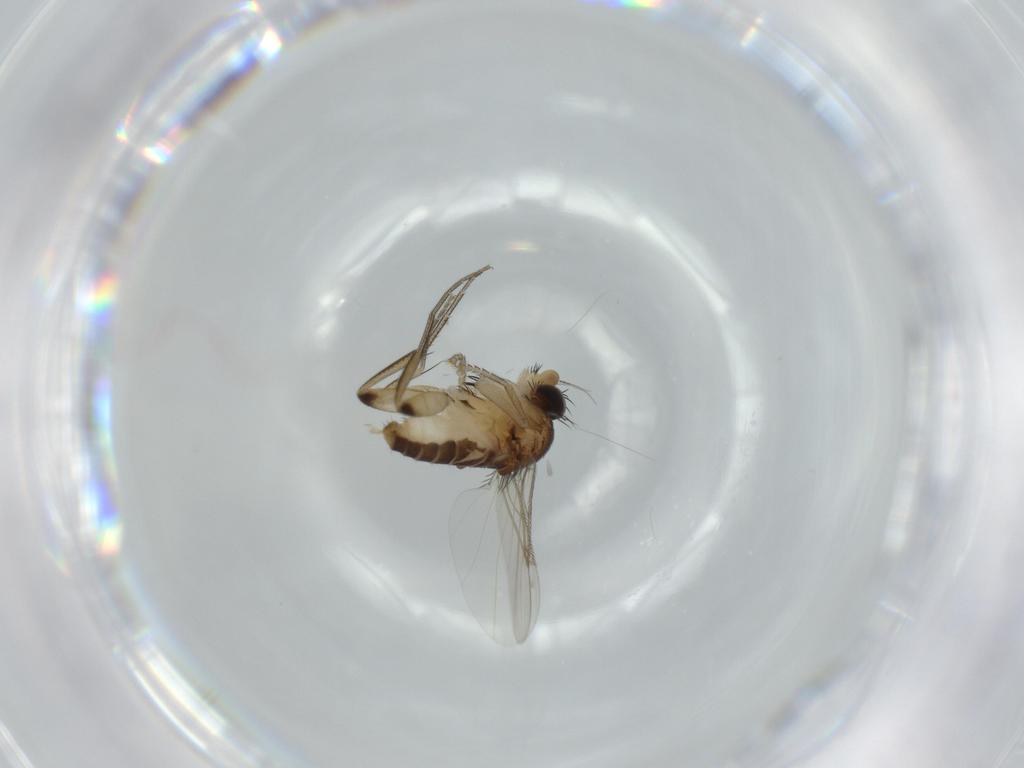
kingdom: Animalia
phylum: Arthropoda
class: Insecta
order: Diptera
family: Phoridae
